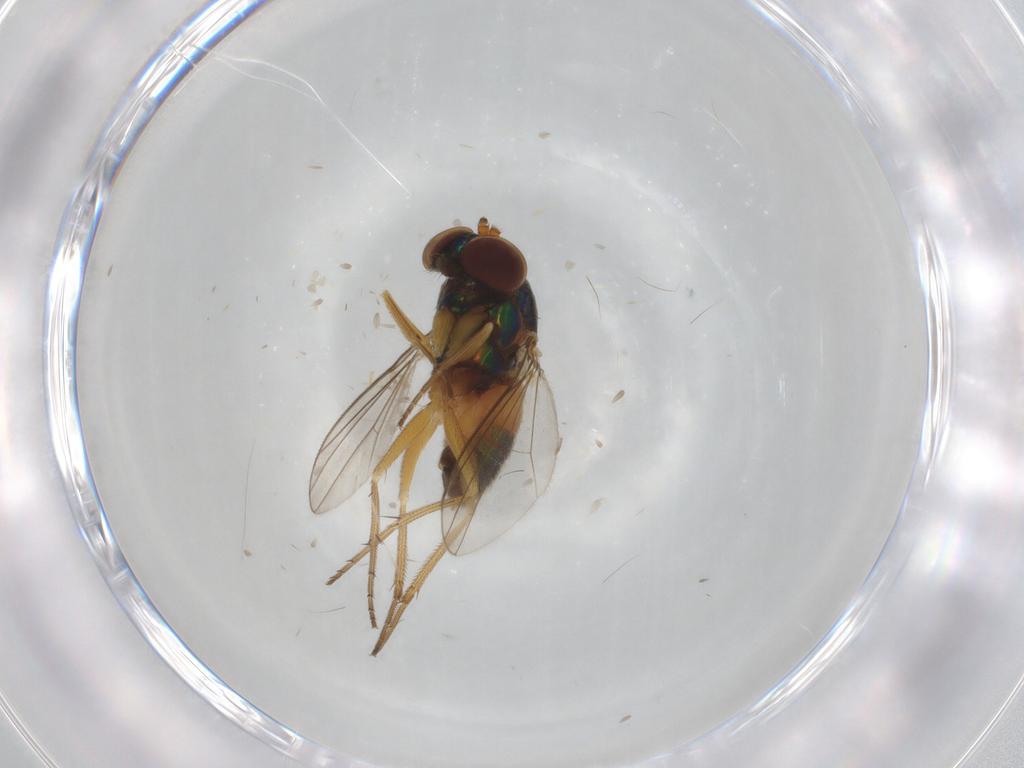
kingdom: Animalia
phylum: Arthropoda
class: Insecta
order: Diptera
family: Dolichopodidae
